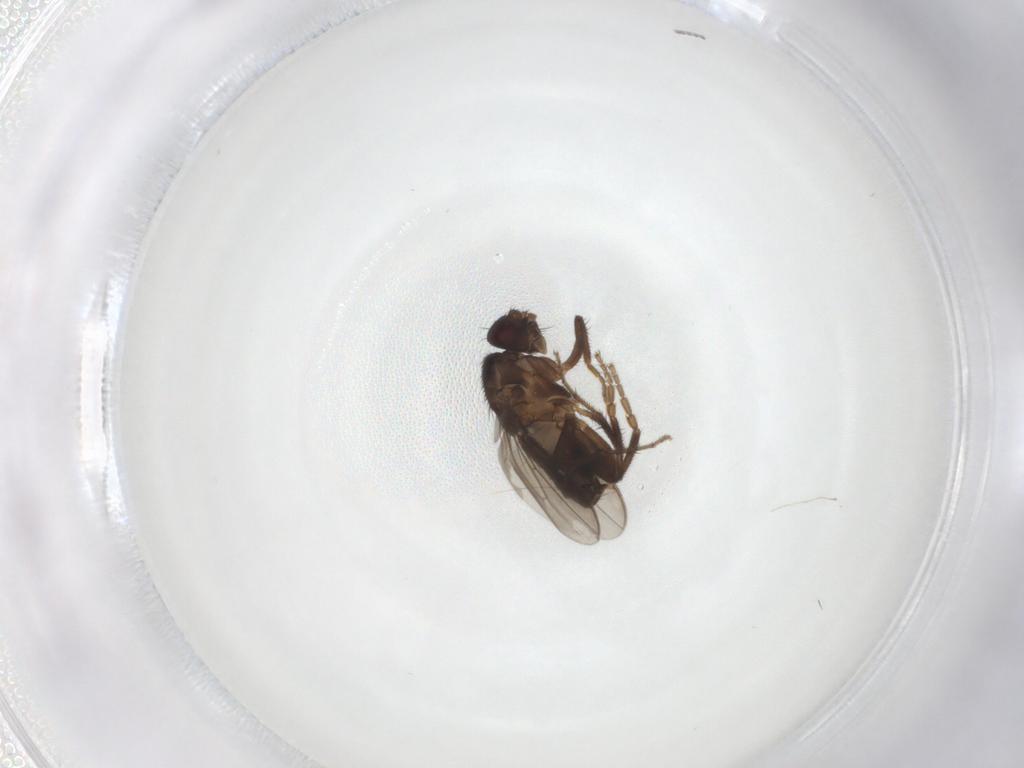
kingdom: Animalia
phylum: Arthropoda
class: Insecta
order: Diptera
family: Sphaeroceridae
